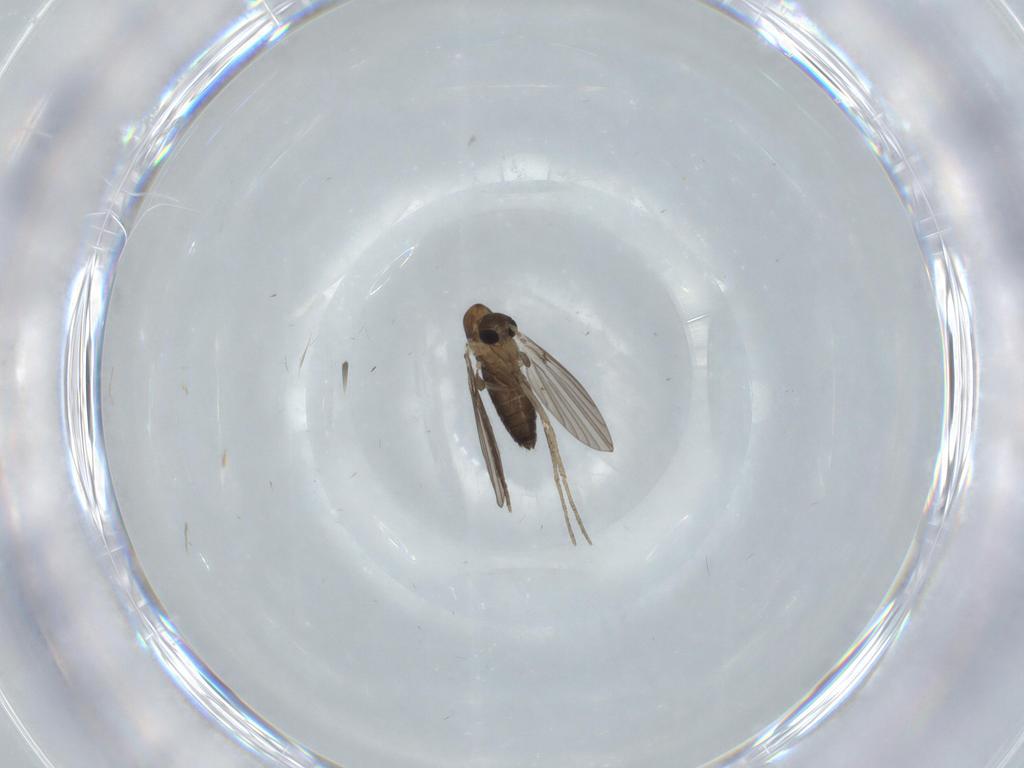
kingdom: Animalia
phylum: Arthropoda
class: Insecta
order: Diptera
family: Psychodidae
